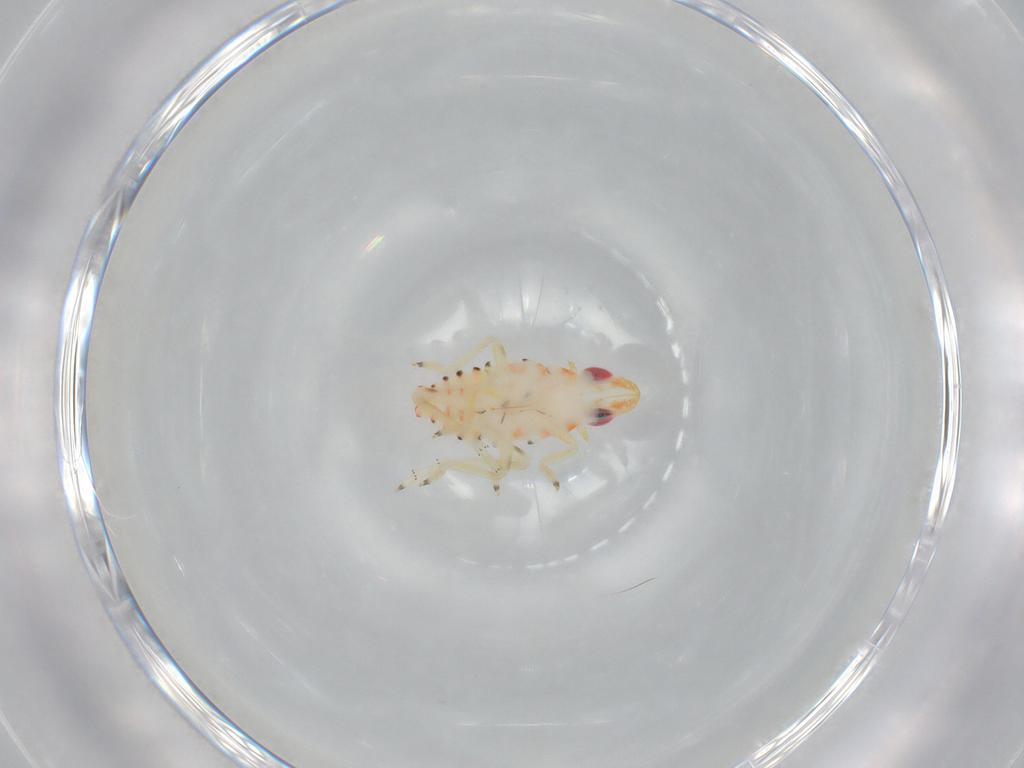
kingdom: Animalia
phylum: Arthropoda
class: Insecta
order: Hemiptera
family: Tropiduchidae
